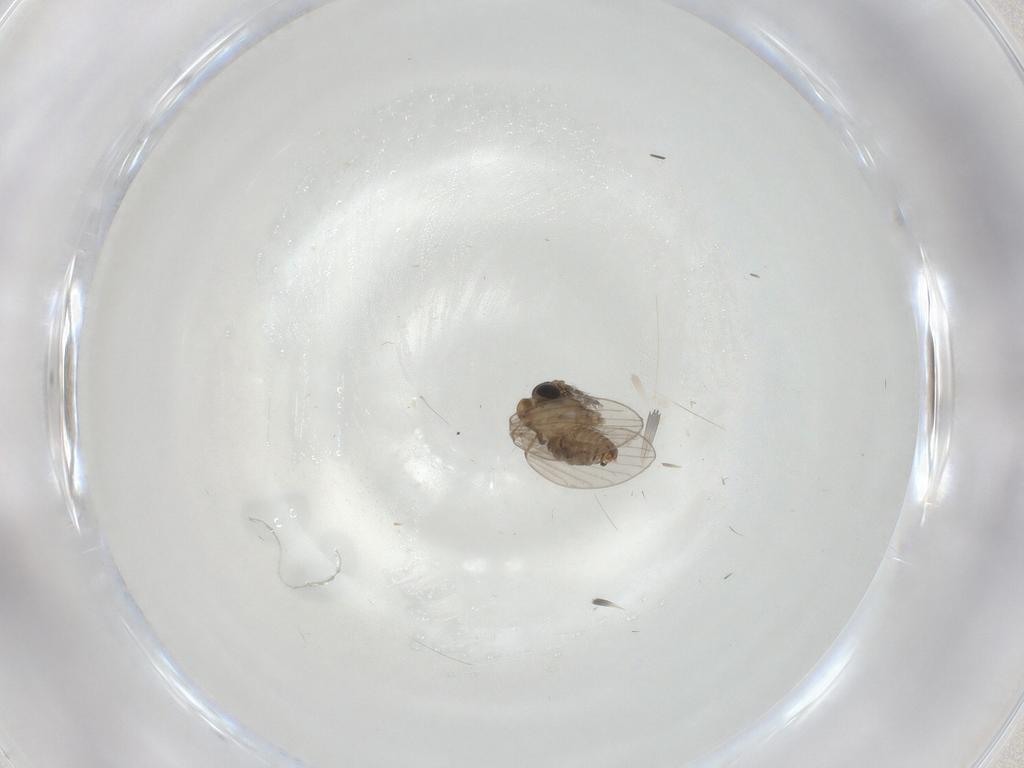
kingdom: Animalia
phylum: Arthropoda
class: Insecta
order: Diptera
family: Psychodidae
